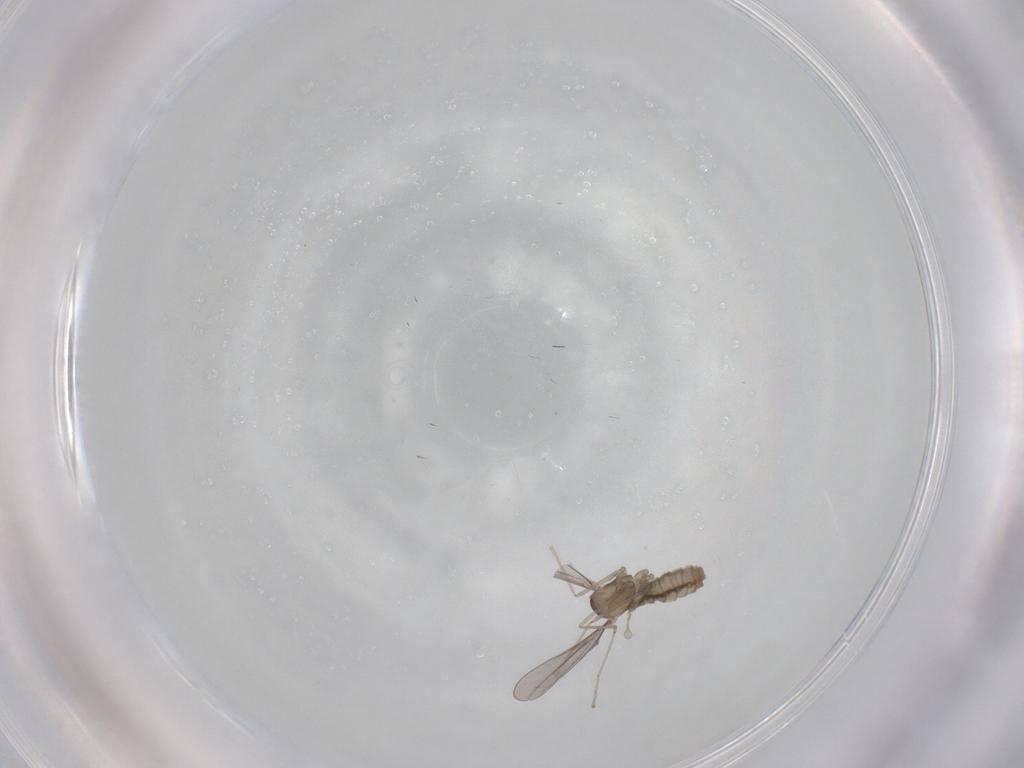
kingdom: Animalia
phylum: Arthropoda
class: Insecta
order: Diptera
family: Cecidomyiidae
